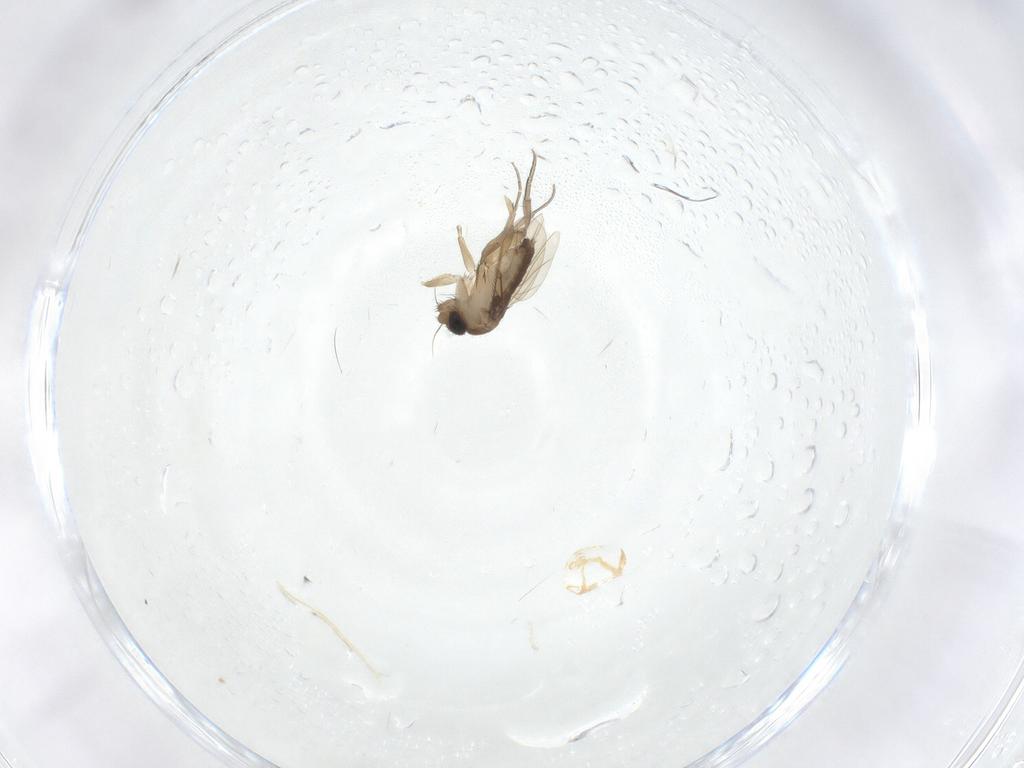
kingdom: Animalia
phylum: Arthropoda
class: Insecta
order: Diptera
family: Phoridae
